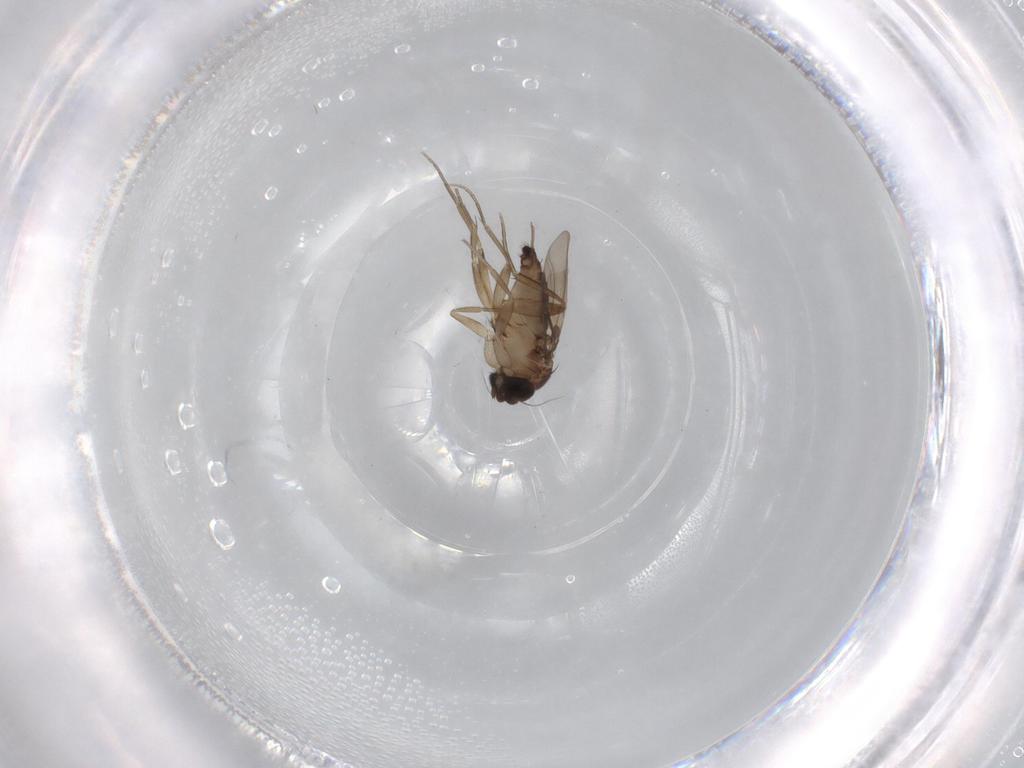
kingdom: Animalia
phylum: Arthropoda
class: Insecta
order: Diptera
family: Phoridae
